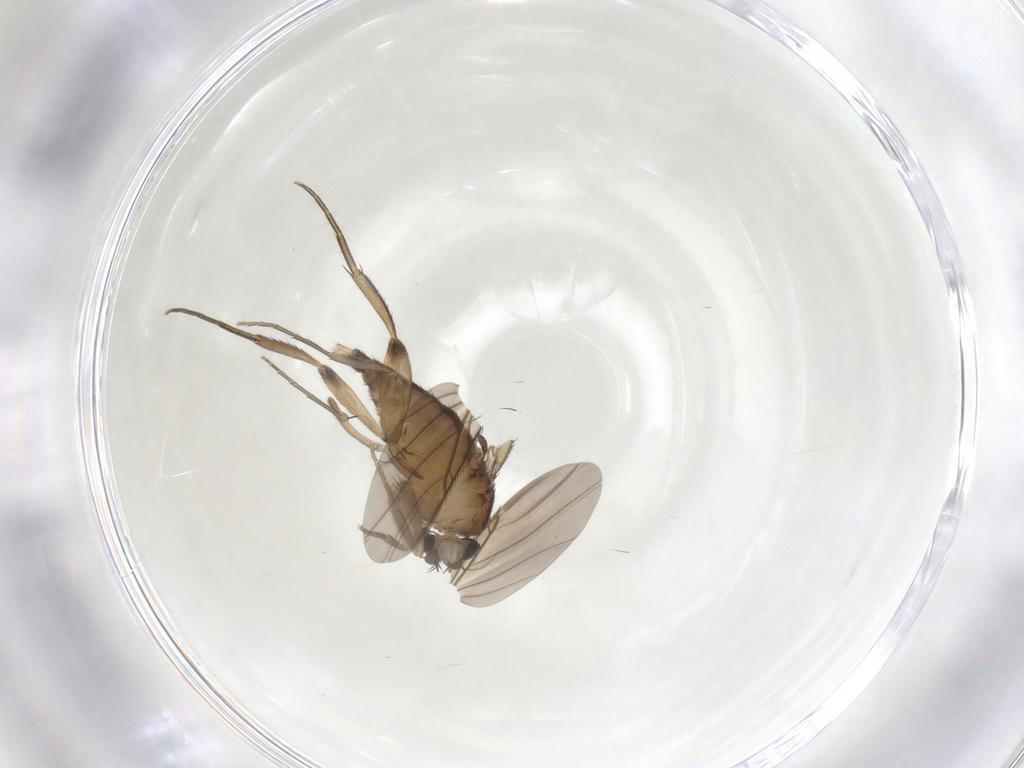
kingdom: Animalia
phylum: Arthropoda
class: Insecta
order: Diptera
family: Phoridae
